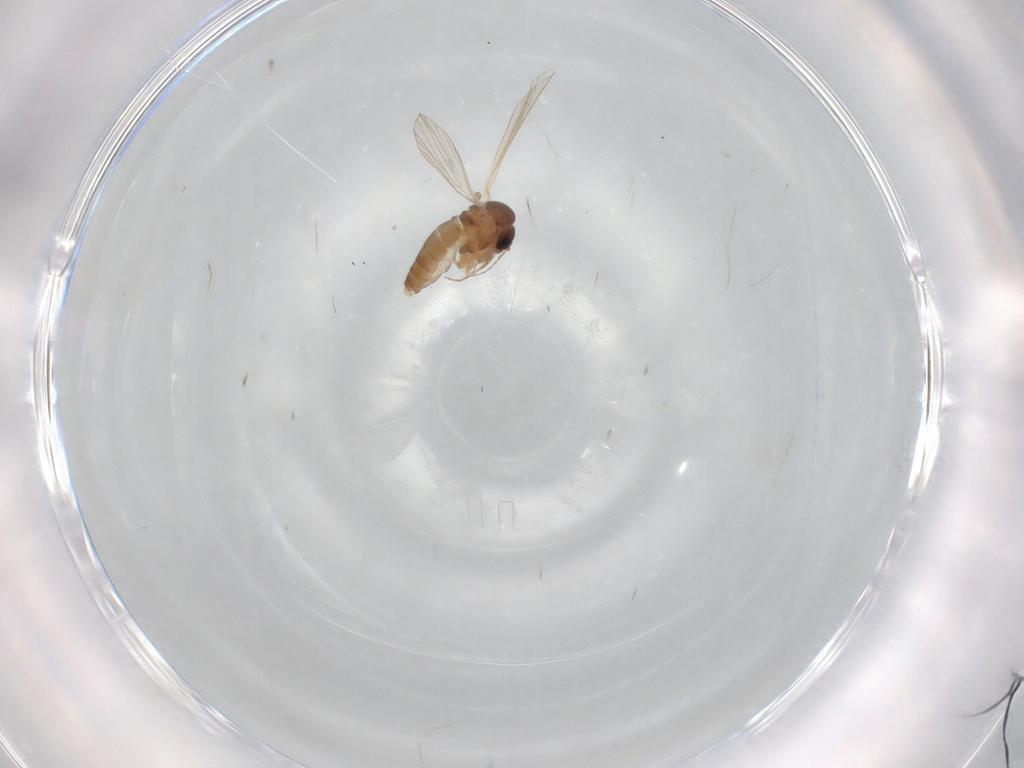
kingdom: Animalia
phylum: Arthropoda
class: Insecta
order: Diptera
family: Psychodidae
